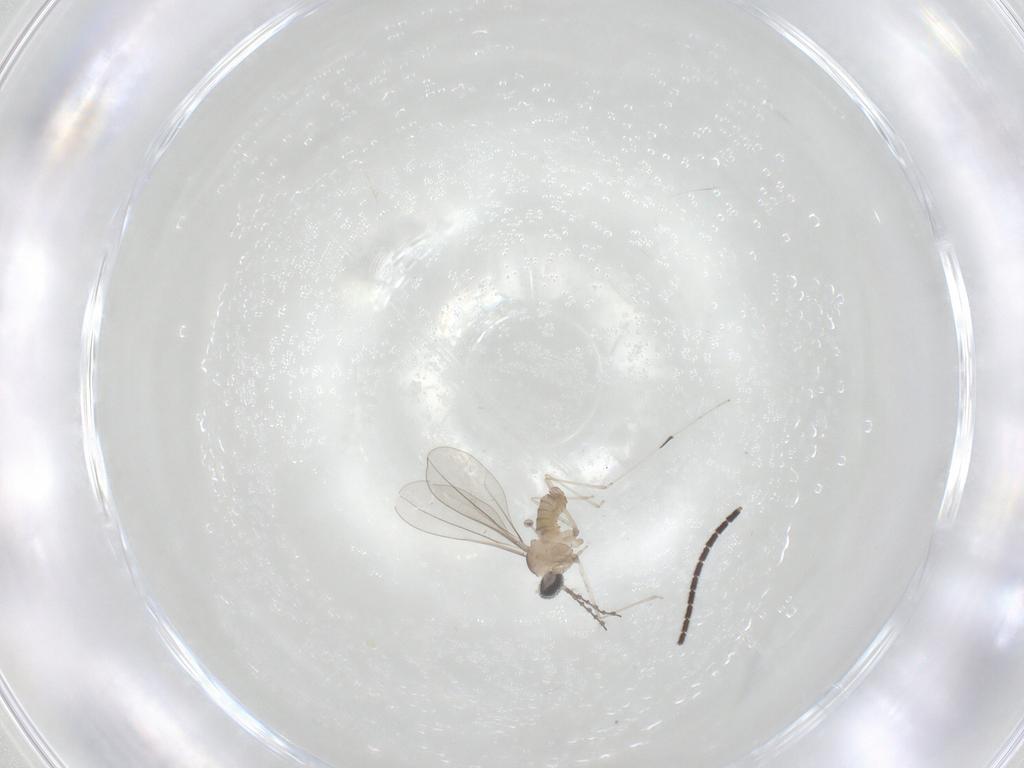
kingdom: Animalia
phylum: Arthropoda
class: Insecta
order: Diptera
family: Cecidomyiidae
